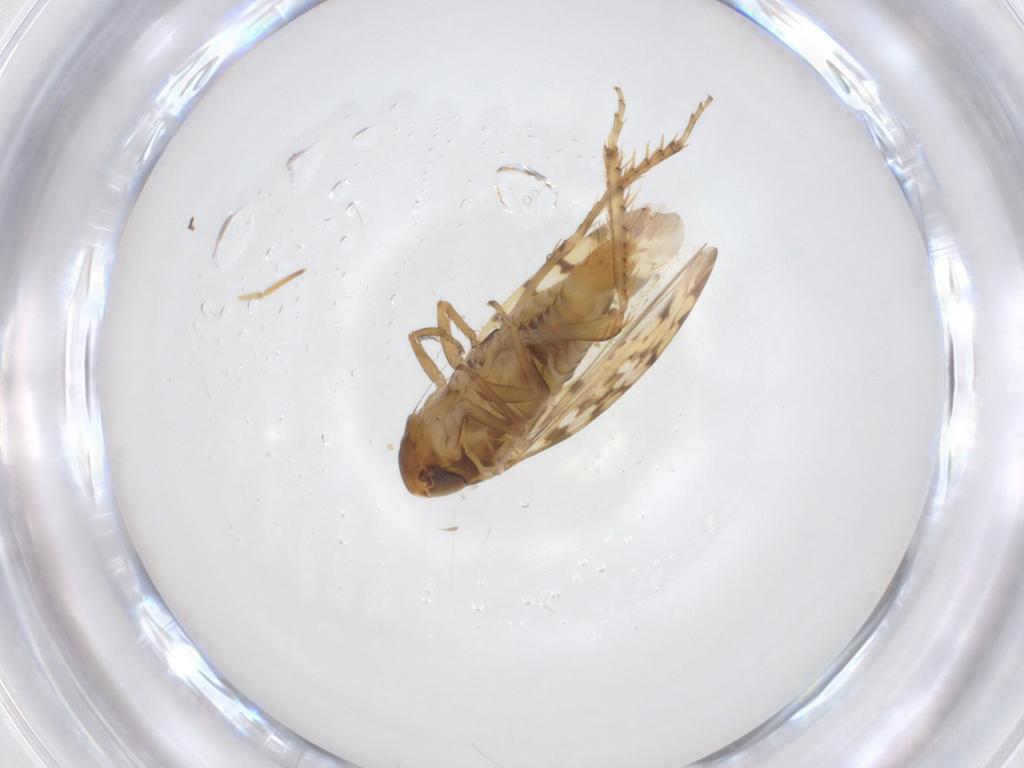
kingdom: Animalia
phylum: Arthropoda
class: Insecta
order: Hemiptera
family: Cicadellidae
